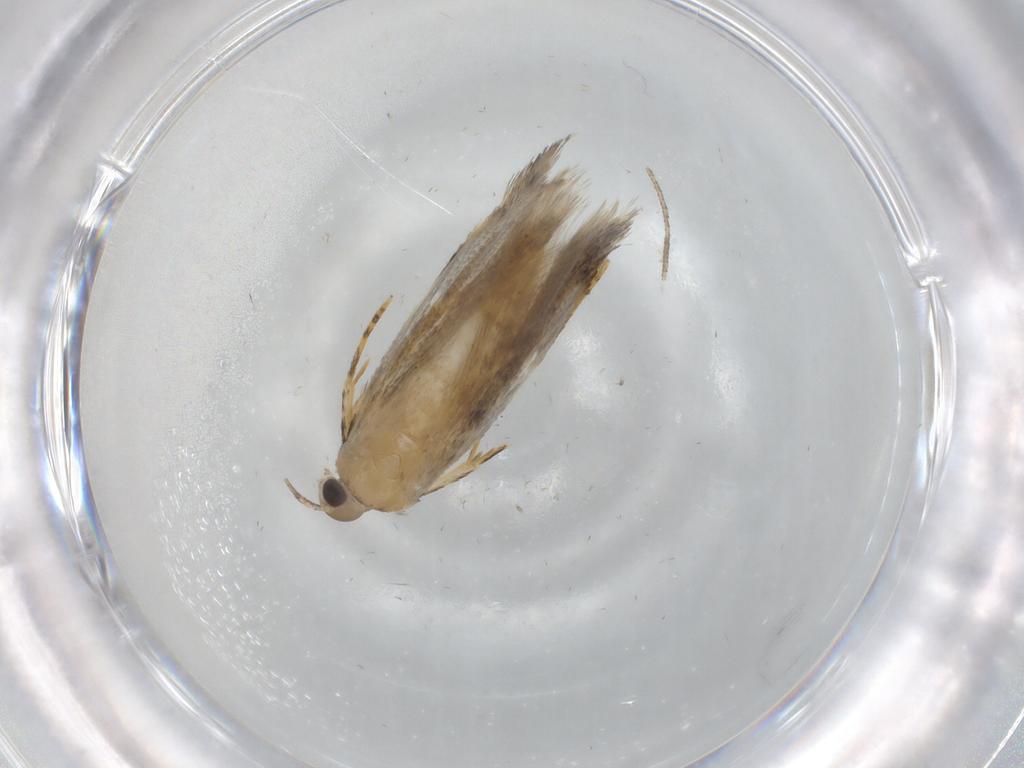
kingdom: Animalia
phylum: Arthropoda
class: Insecta
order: Lepidoptera
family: Autostichidae
